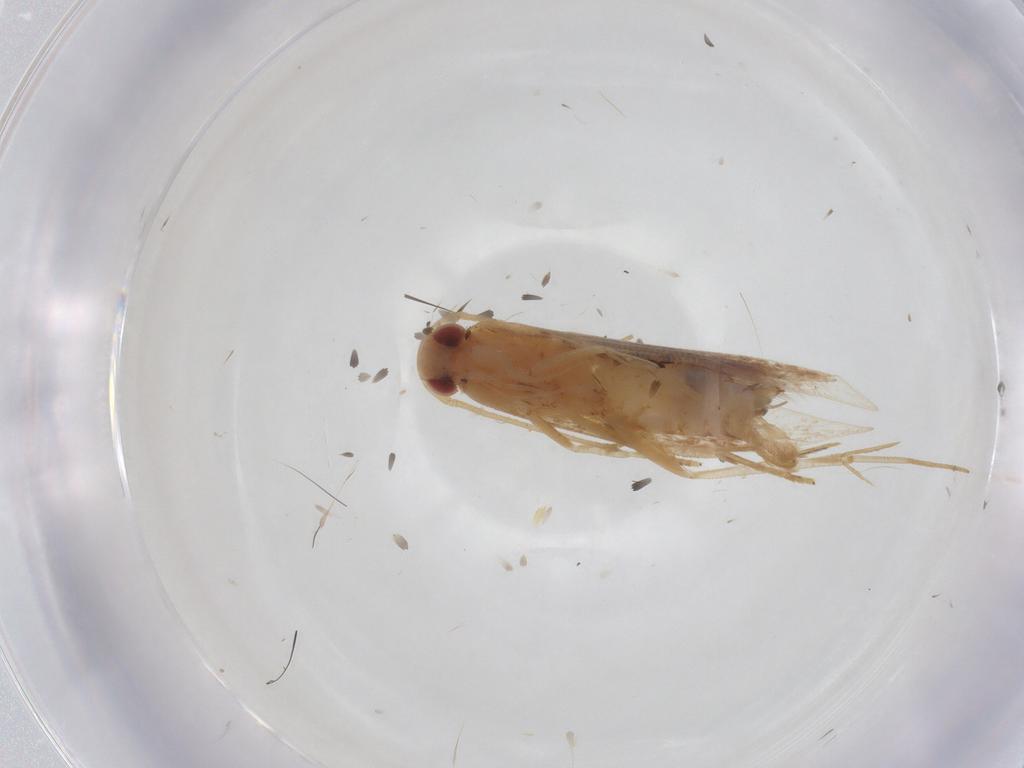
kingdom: Animalia
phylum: Arthropoda
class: Insecta
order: Lepidoptera
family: Cosmopterigidae
